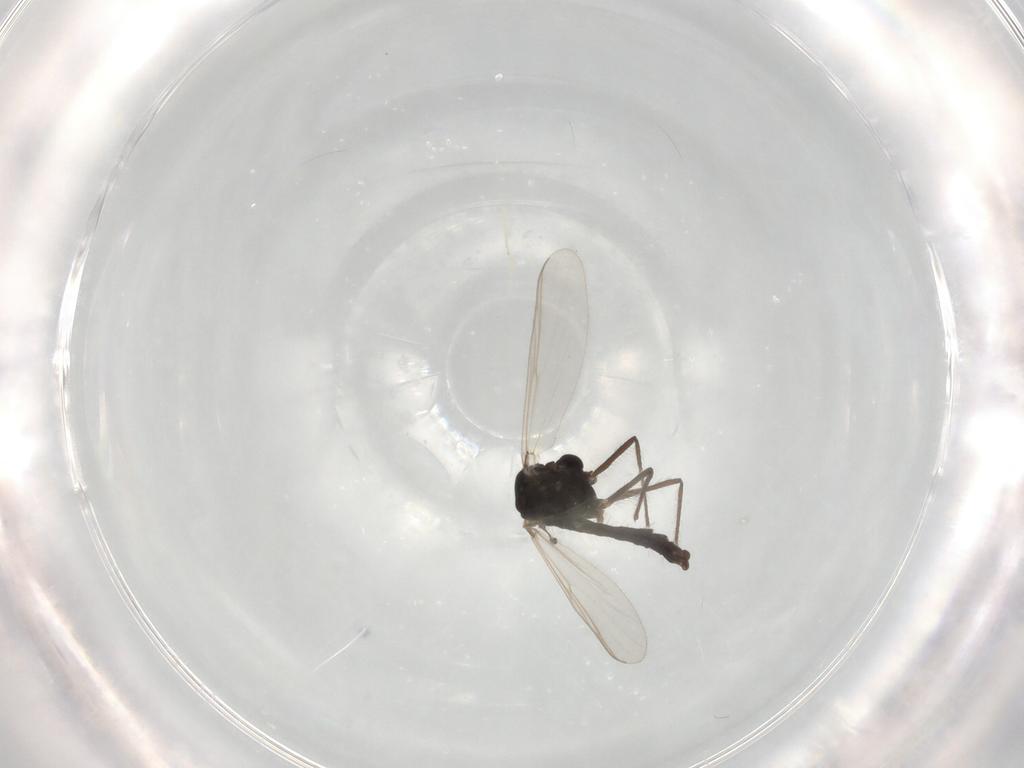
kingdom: Animalia
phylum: Arthropoda
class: Insecta
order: Diptera
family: Chironomidae
